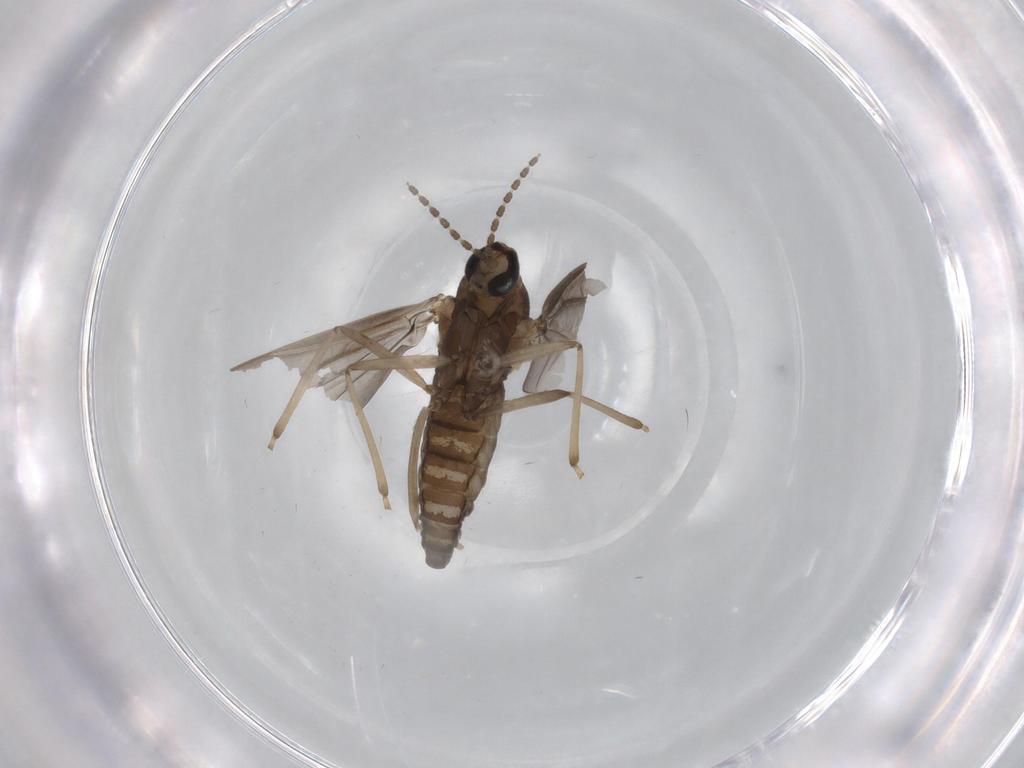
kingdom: Animalia
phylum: Arthropoda
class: Insecta
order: Diptera
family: Cecidomyiidae
